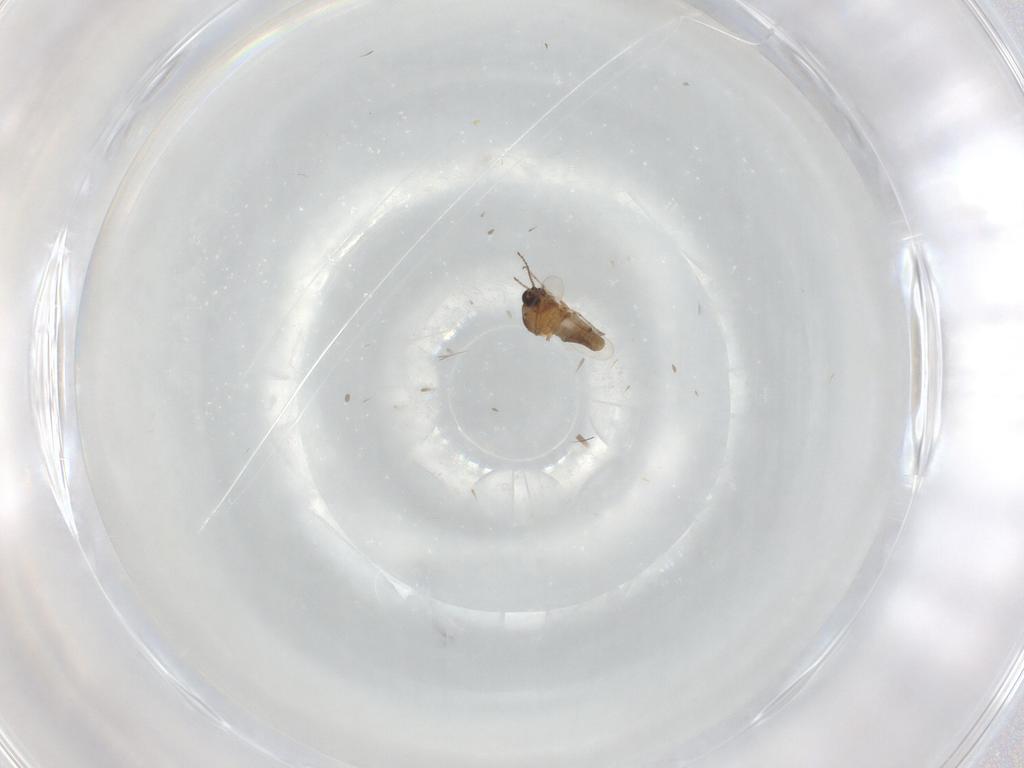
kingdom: Animalia
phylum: Arthropoda
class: Insecta
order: Diptera
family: Ceratopogonidae
